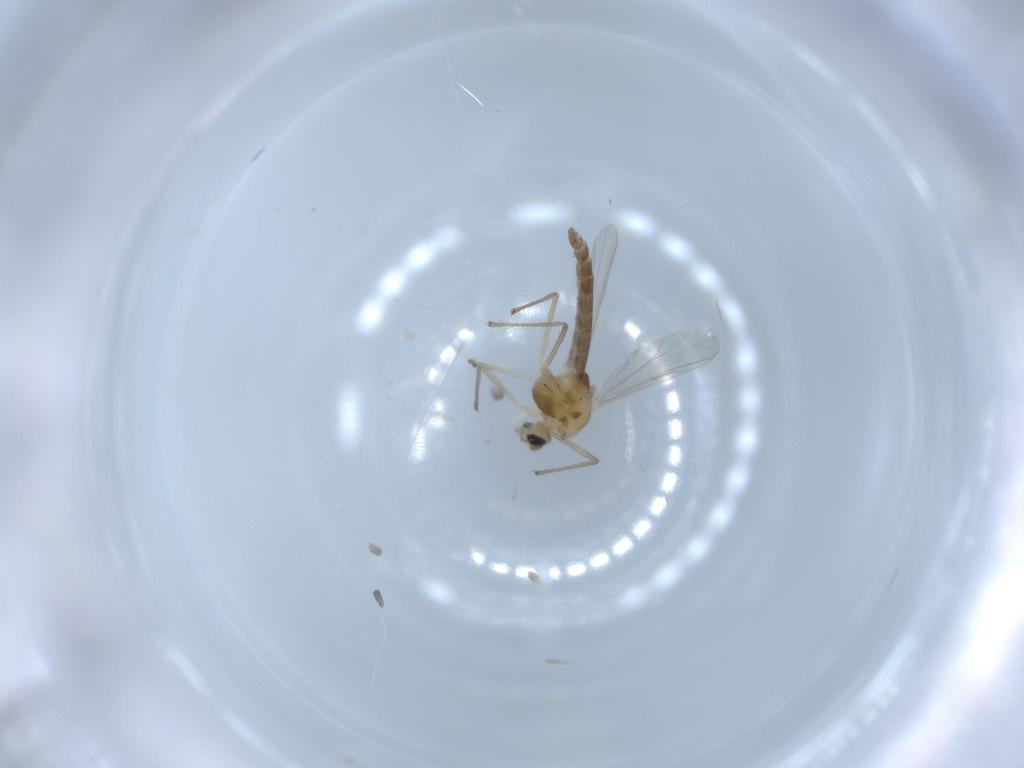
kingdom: Animalia
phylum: Arthropoda
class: Insecta
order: Diptera
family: Chironomidae
